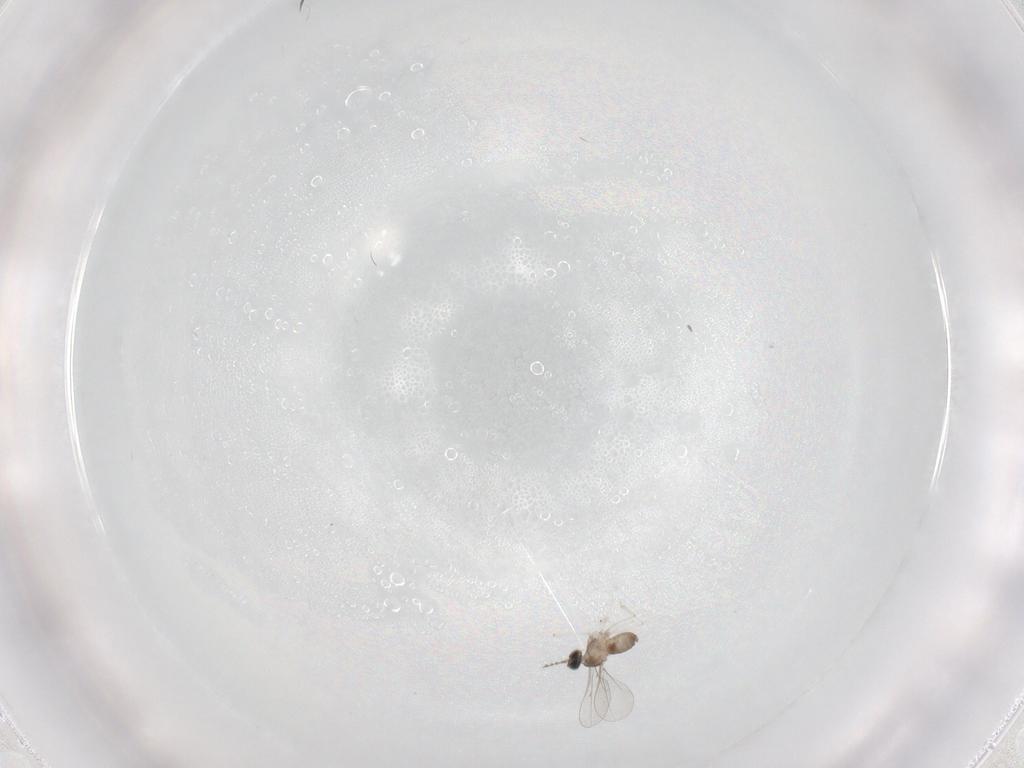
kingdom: Animalia
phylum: Arthropoda
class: Insecta
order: Diptera
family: Cecidomyiidae
